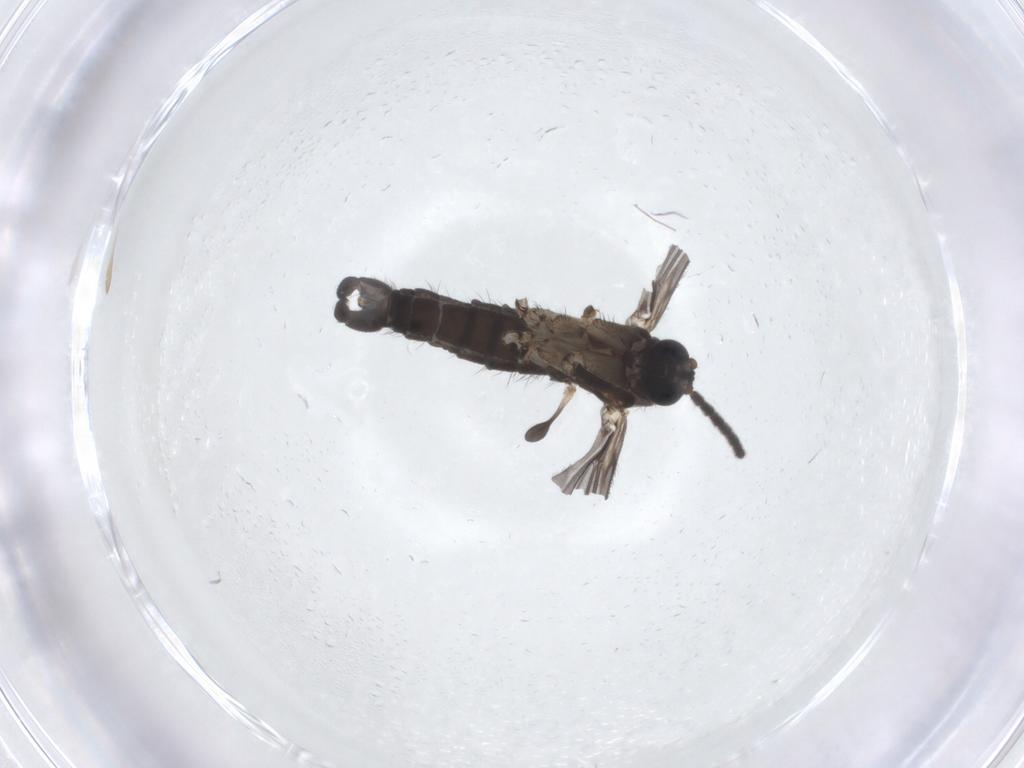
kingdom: Animalia
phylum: Arthropoda
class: Insecta
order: Diptera
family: Sciaridae
